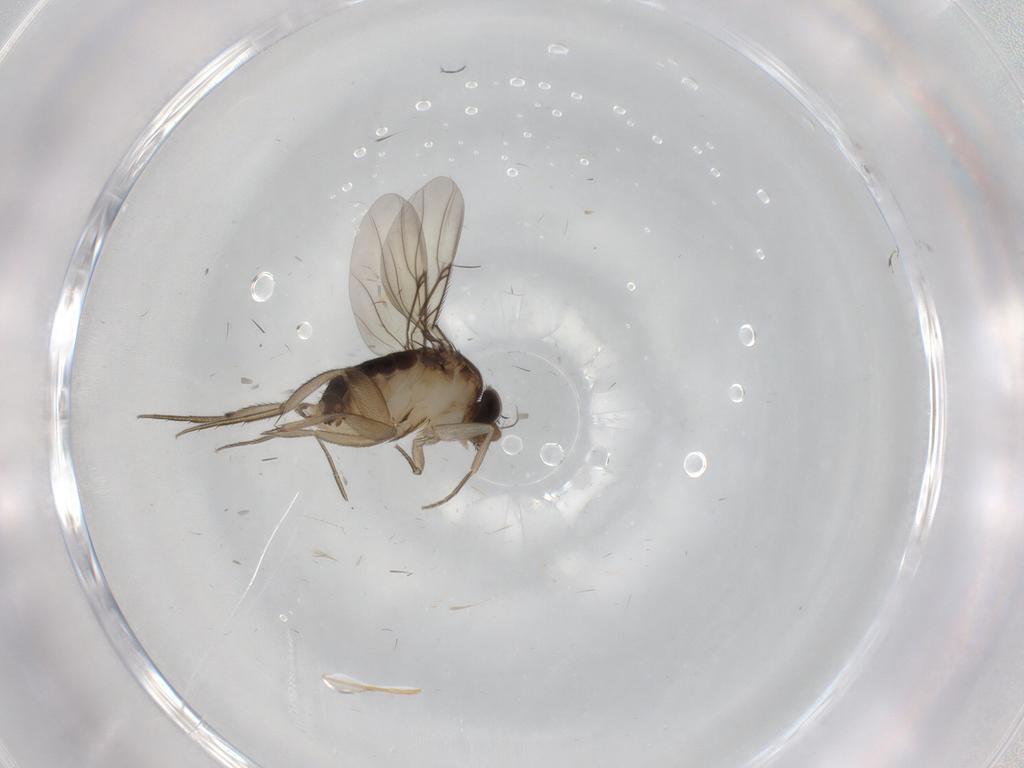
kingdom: Animalia
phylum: Arthropoda
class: Insecta
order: Diptera
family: Phoridae
